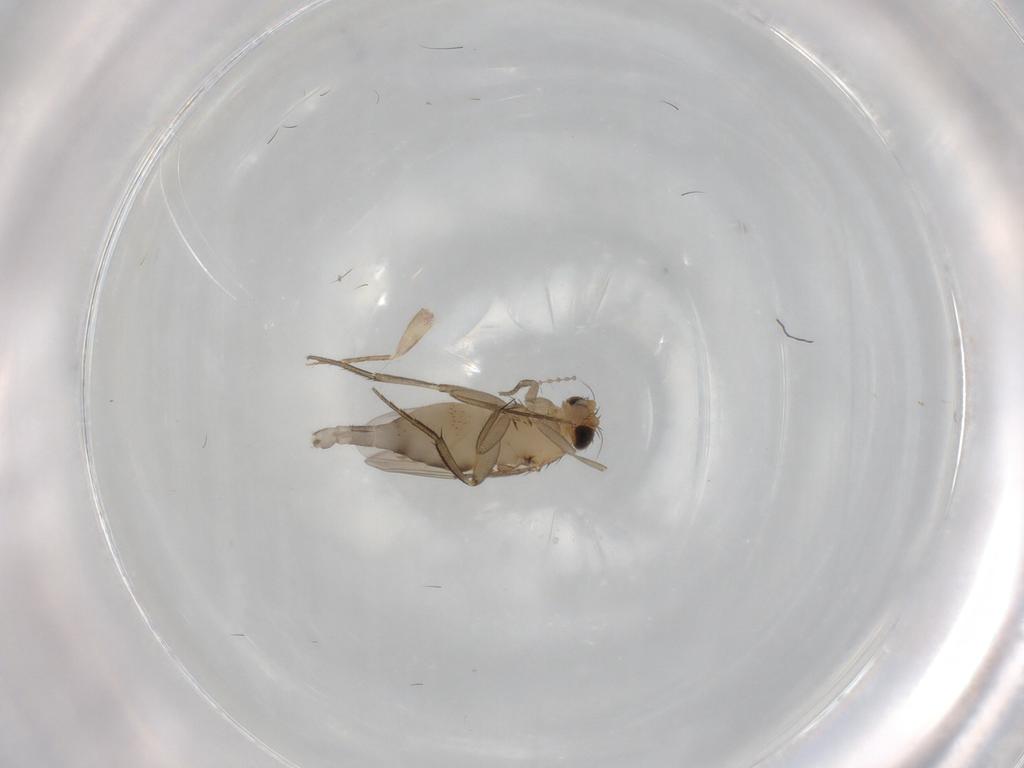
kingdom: Animalia
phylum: Arthropoda
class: Insecta
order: Diptera
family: Phoridae
